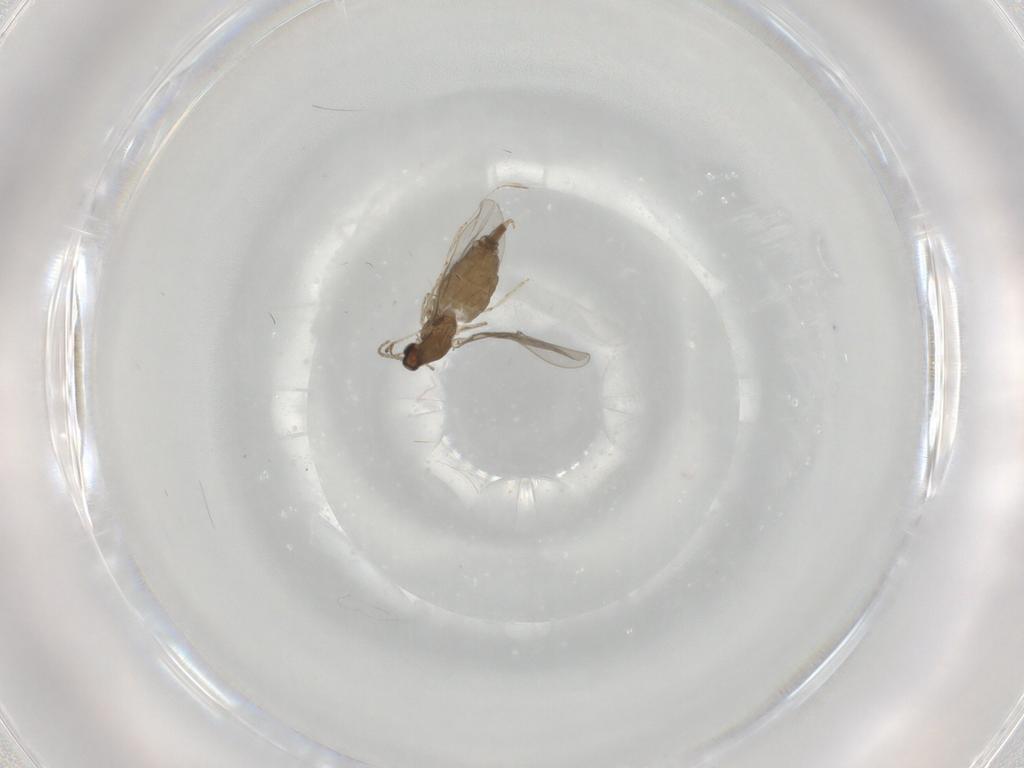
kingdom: Animalia
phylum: Arthropoda
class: Insecta
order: Diptera
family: Cecidomyiidae
